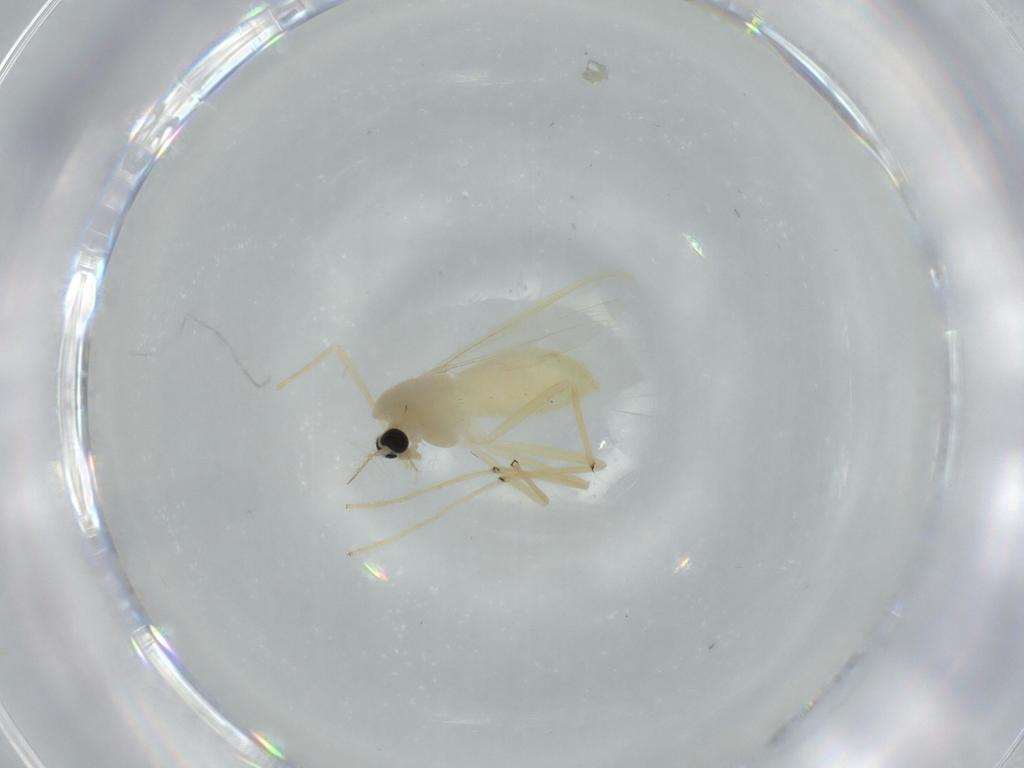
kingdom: Animalia
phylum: Arthropoda
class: Insecta
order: Diptera
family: Chironomidae
